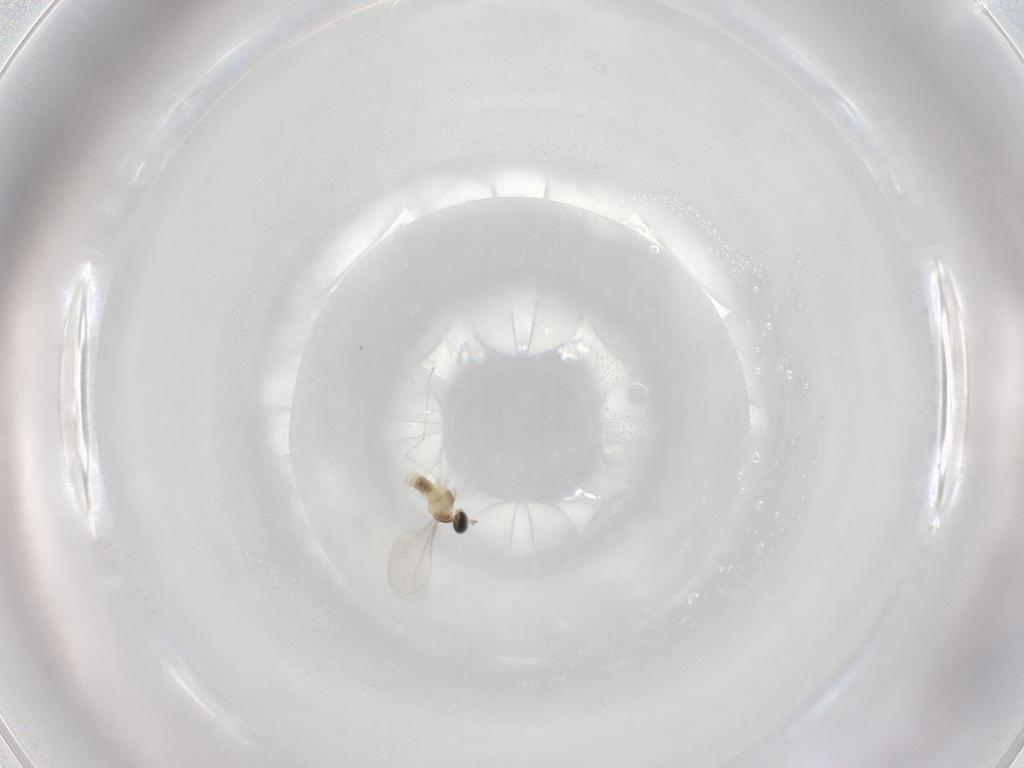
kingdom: Animalia
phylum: Arthropoda
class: Insecta
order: Diptera
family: Cecidomyiidae
